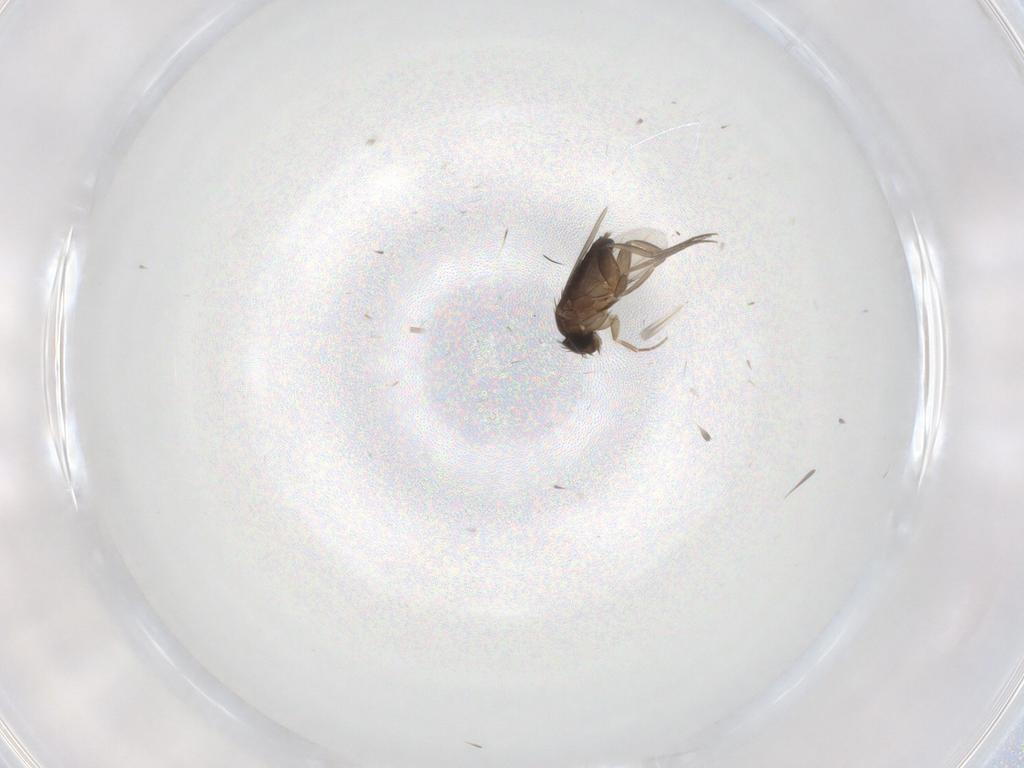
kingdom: Animalia
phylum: Arthropoda
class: Insecta
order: Diptera
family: Phoridae
